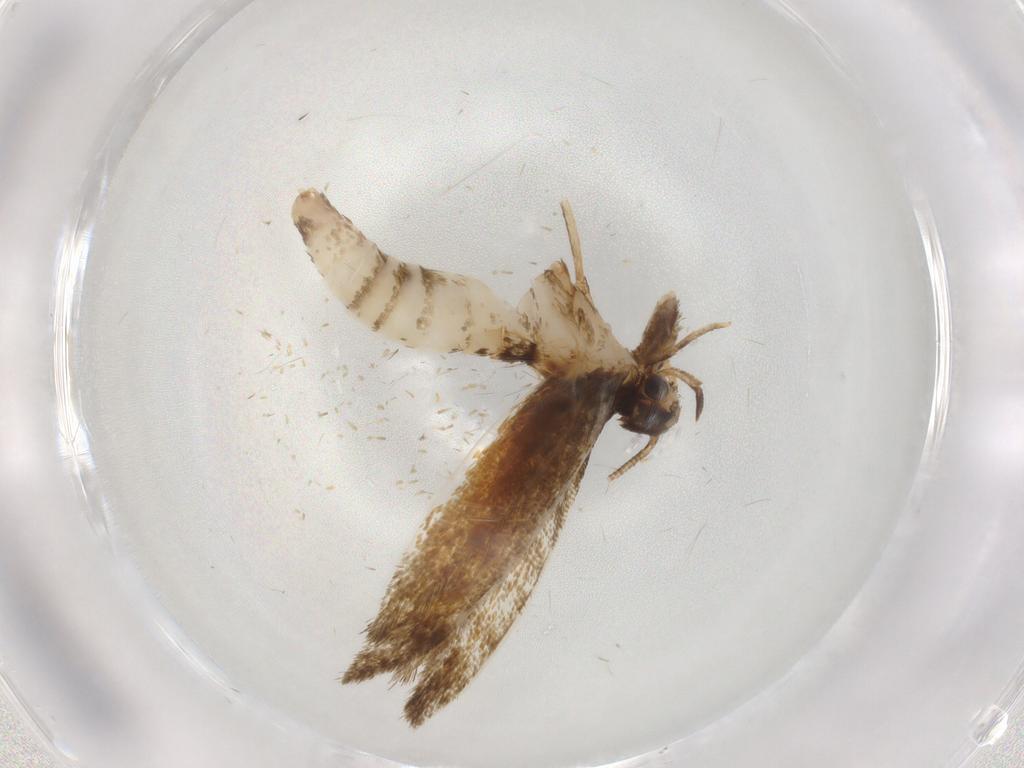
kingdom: Animalia
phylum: Arthropoda
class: Insecta
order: Lepidoptera
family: Tineidae
